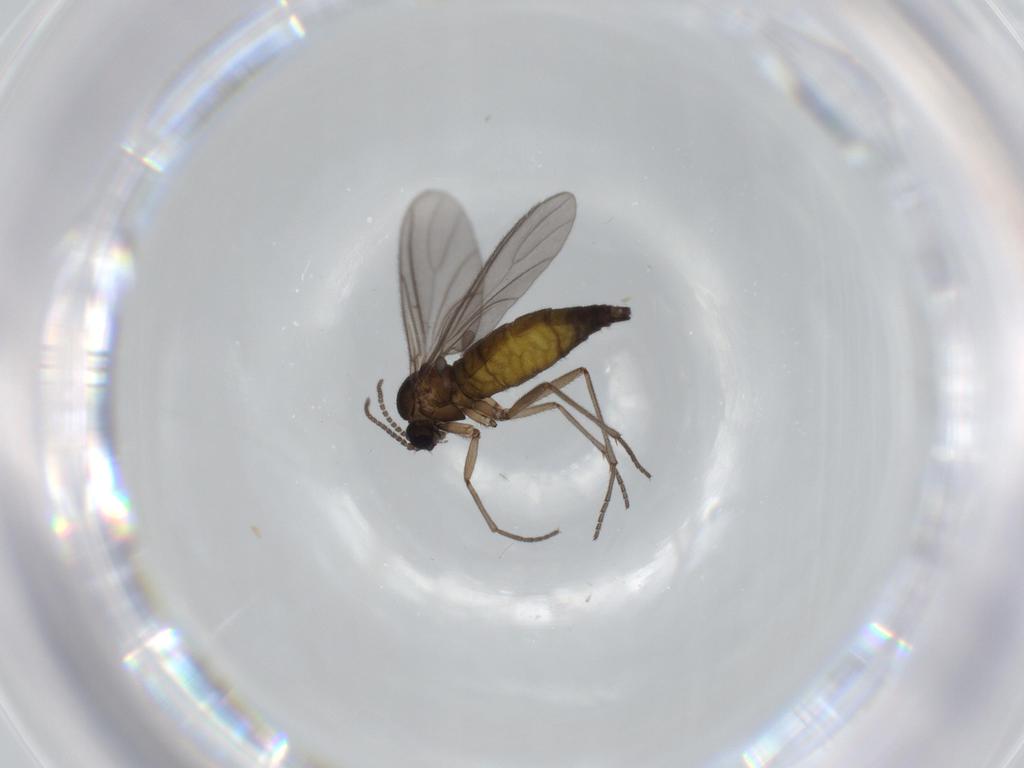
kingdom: Animalia
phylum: Arthropoda
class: Insecta
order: Diptera
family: Sciaridae
